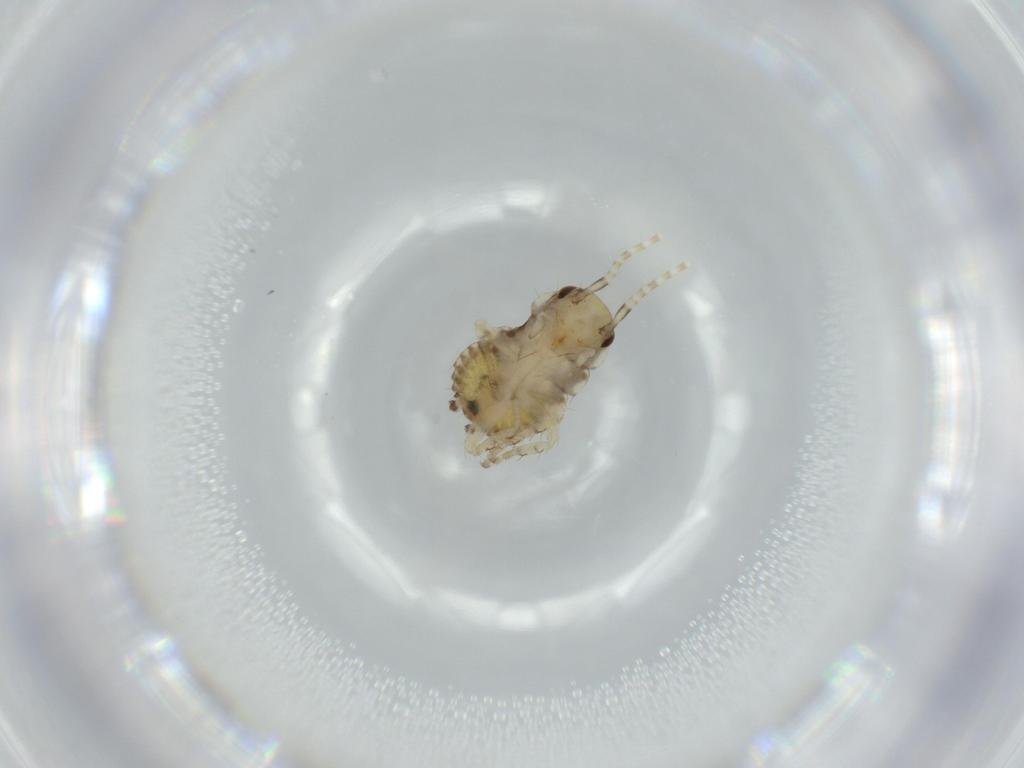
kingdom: Animalia
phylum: Arthropoda
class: Insecta
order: Blattodea
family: Ectobiidae
